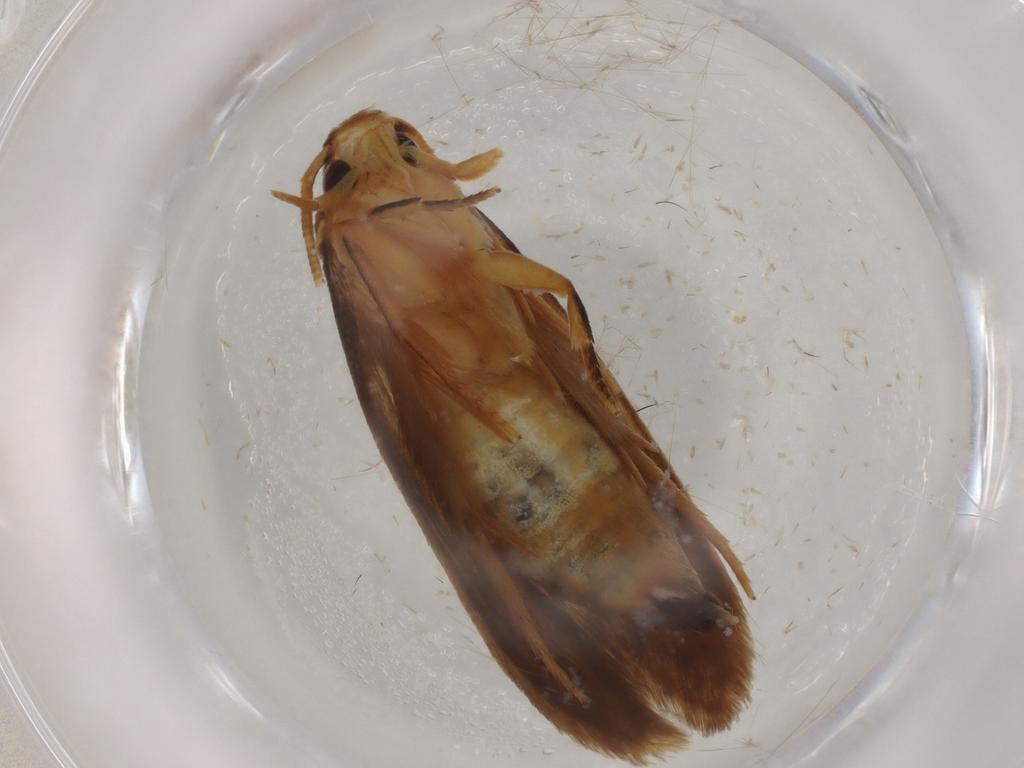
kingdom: Animalia
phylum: Arthropoda
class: Insecta
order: Lepidoptera
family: Tineidae
